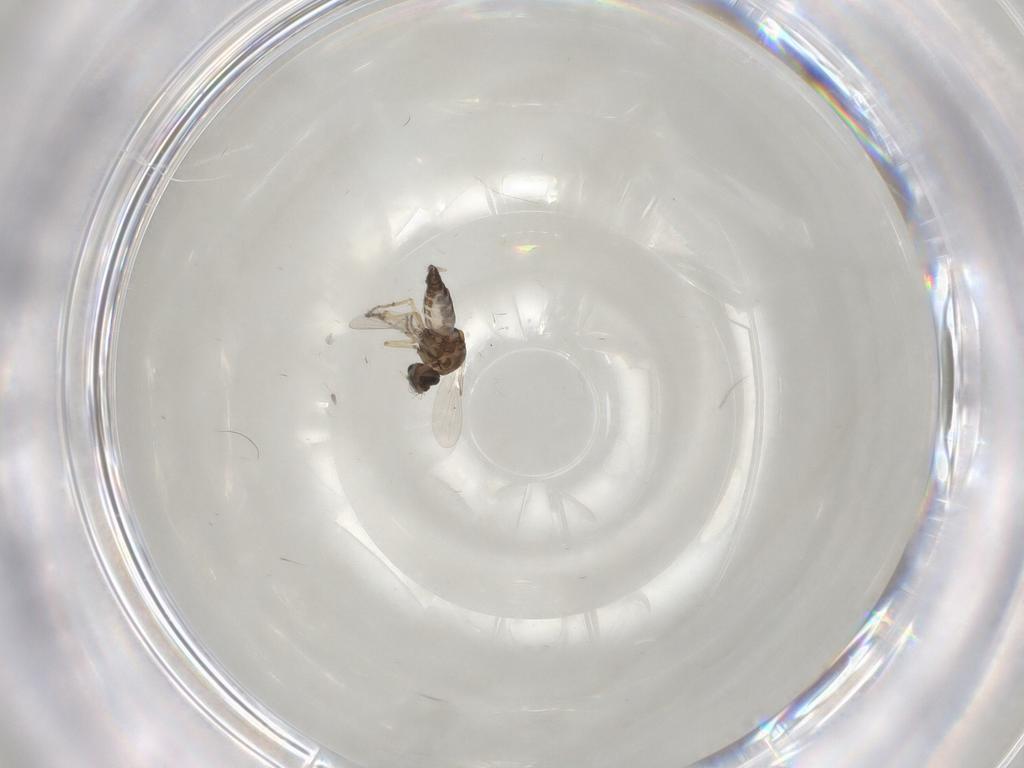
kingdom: Animalia
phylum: Arthropoda
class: Insecta
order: Diptera
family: Ceratopogonidae
